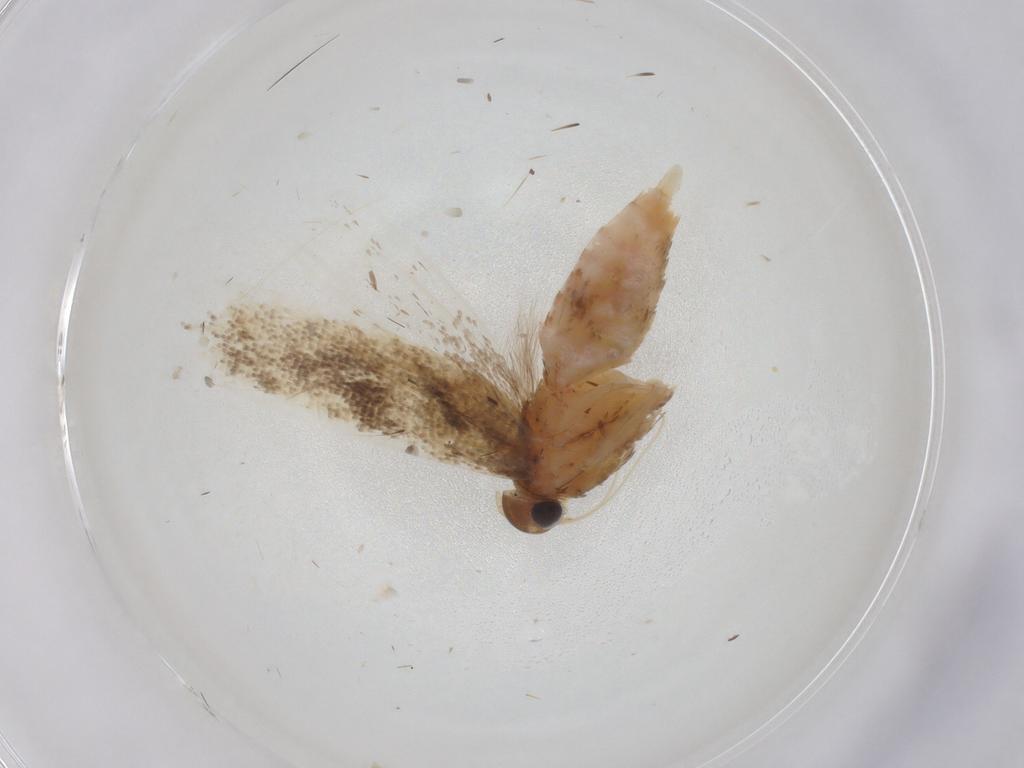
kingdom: Animalia
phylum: Arthropoda
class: Insecta
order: Lepidoptera
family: Gelechiidae
